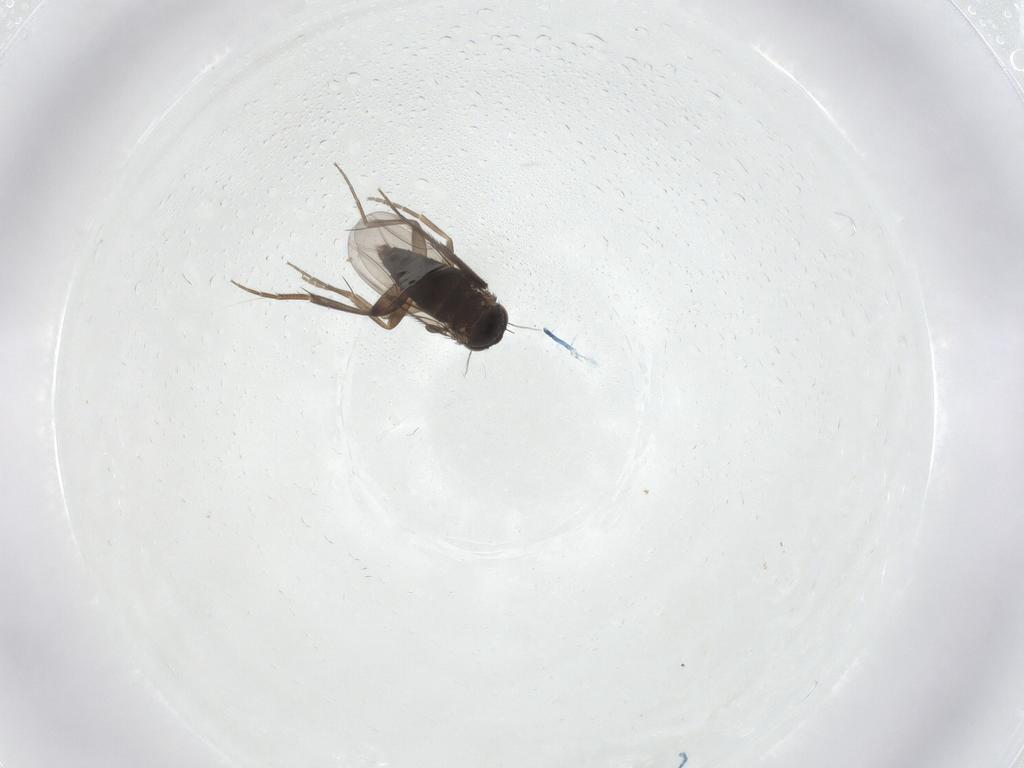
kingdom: Animalia
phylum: Arthropoda
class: Insecta
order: Diptera
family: Phoridae
